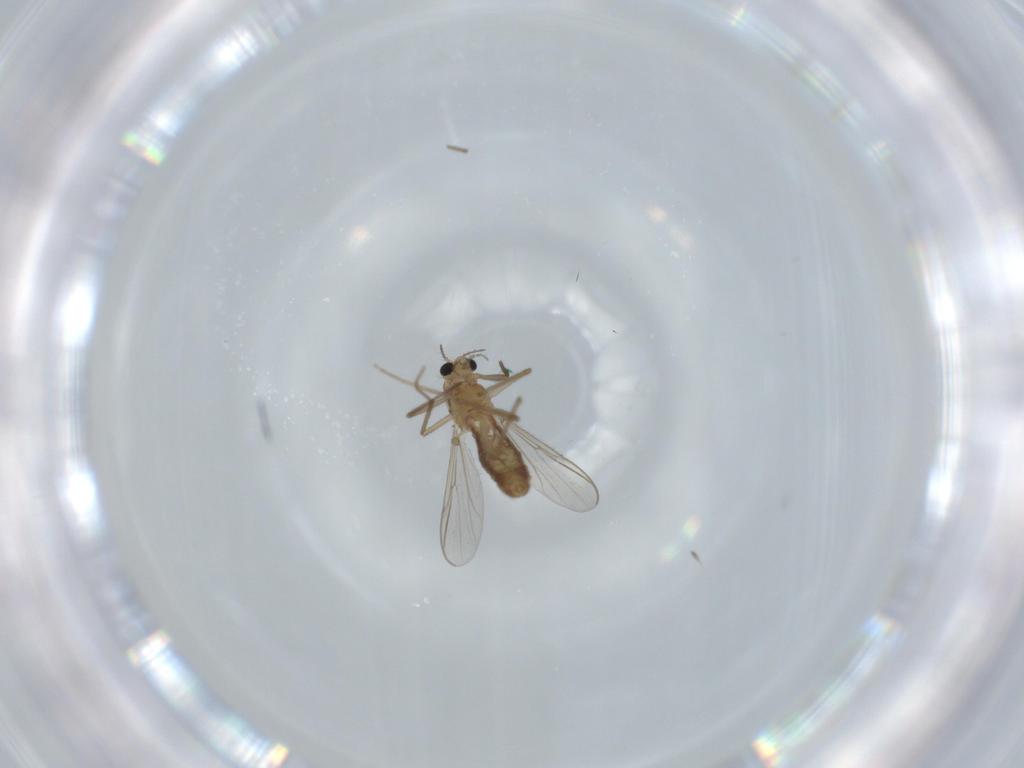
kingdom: Animalia
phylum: Arthropoda
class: Insecta
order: Diptera
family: Chironomidae
